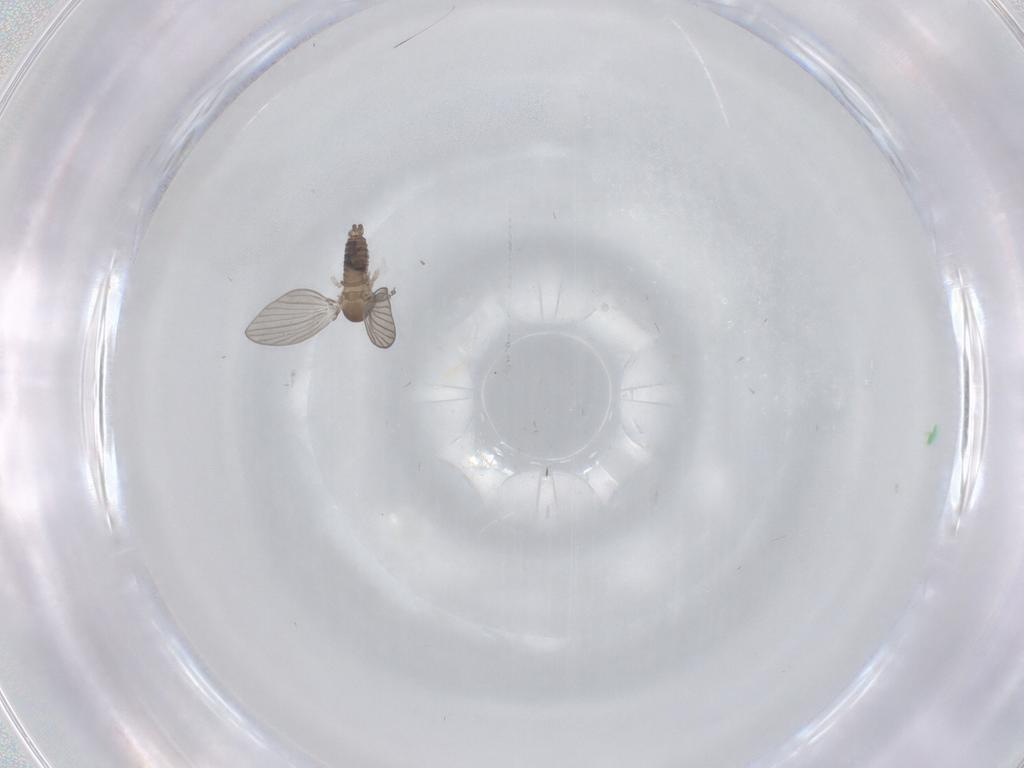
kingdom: Animalia
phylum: Arthropoda
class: Insecta
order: Diptera
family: Psychodidae
